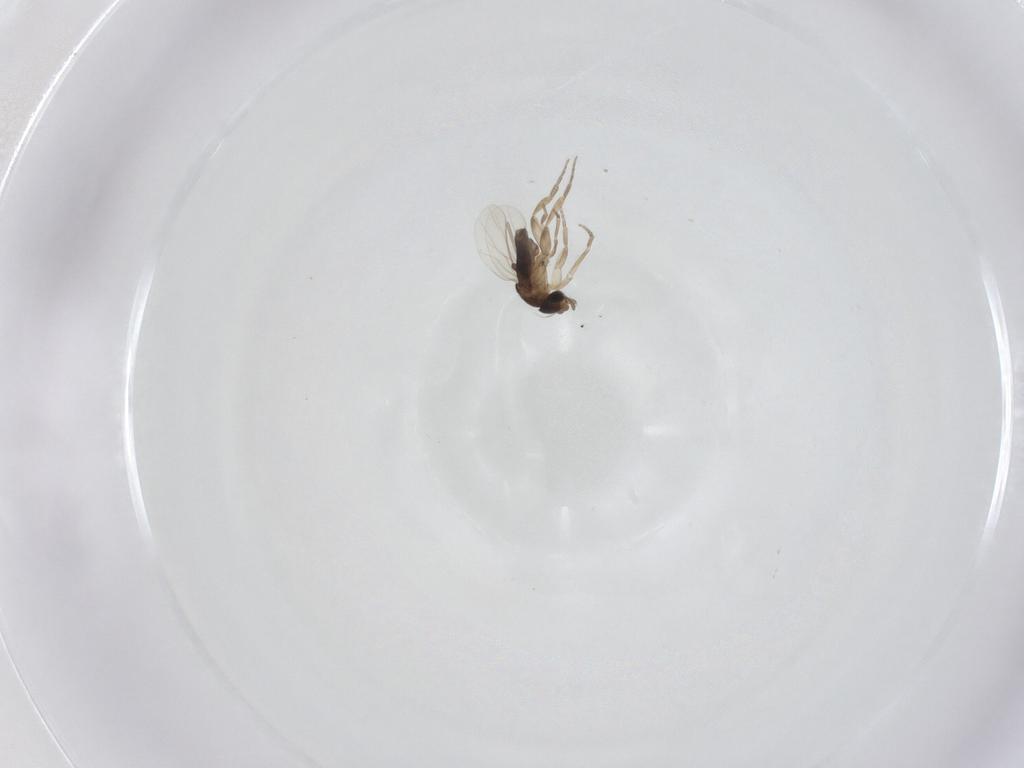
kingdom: Animalia
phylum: Arthropoda
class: Insecta
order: Diptera
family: Phoridae
